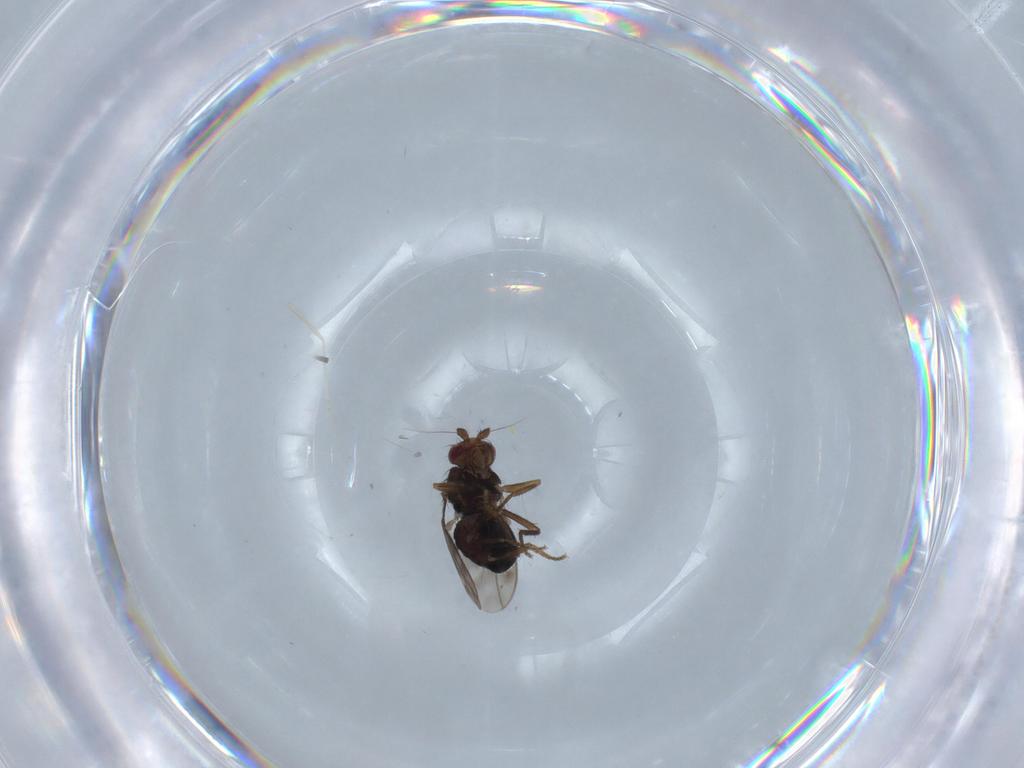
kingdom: Animalia
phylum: Arthropoda
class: Insecta
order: Diptera
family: Cecidomyiidae
